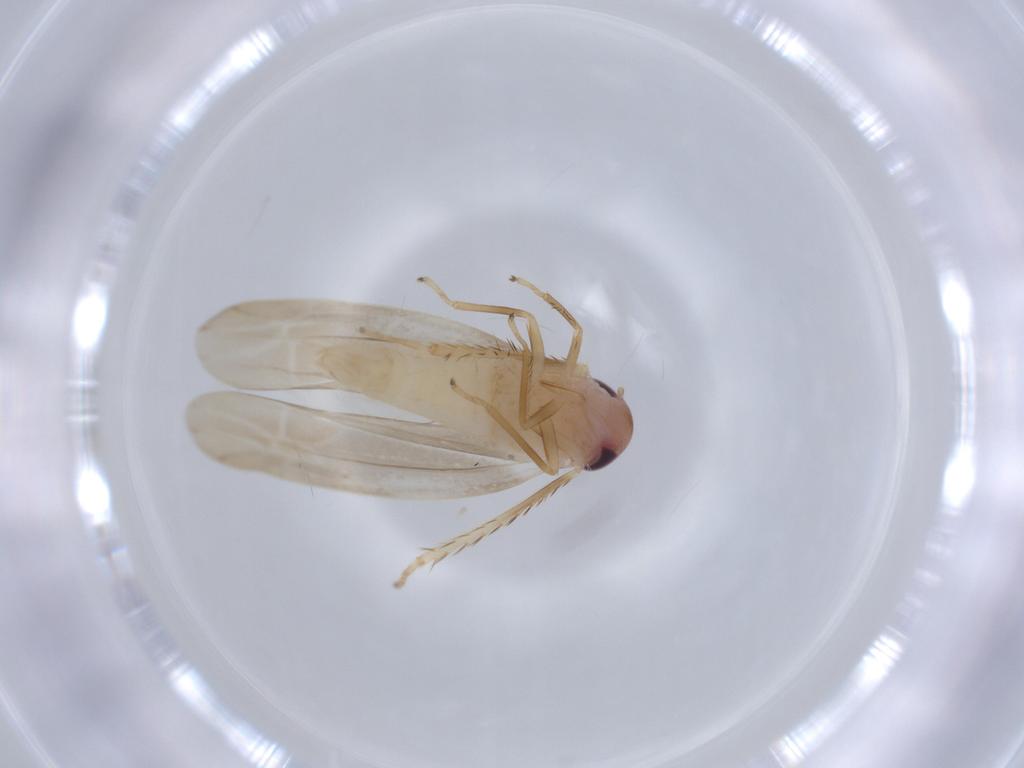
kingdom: Animalia
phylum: Arthropoda
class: Insecta
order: Hemiptera
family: Cicadellidae
